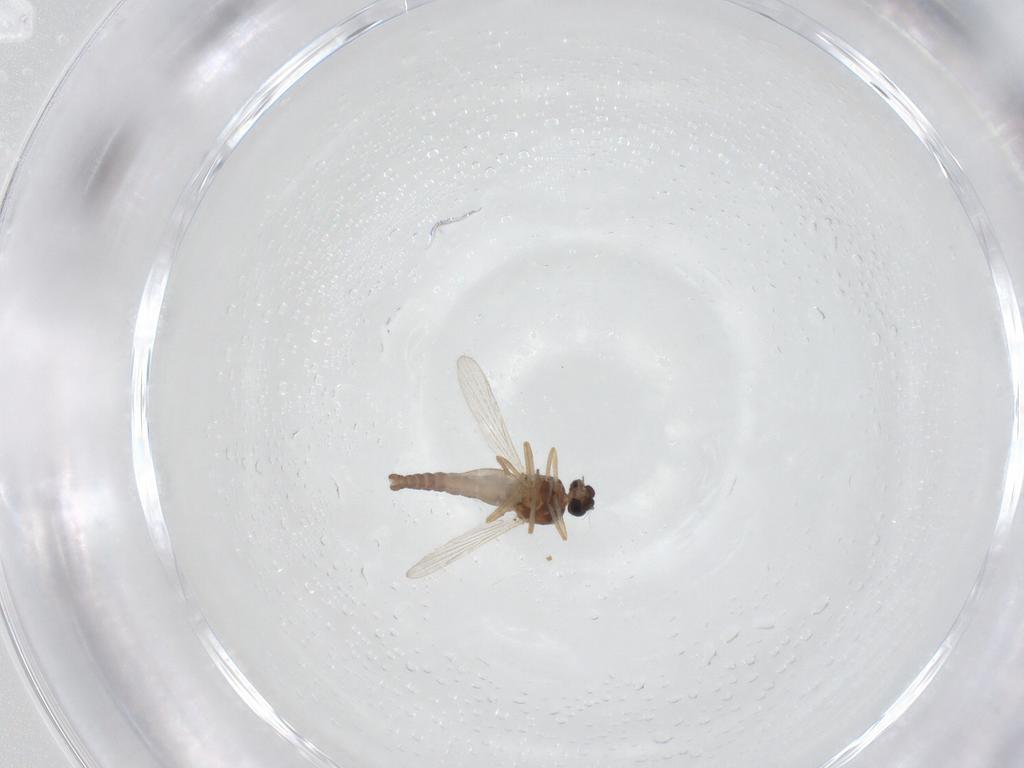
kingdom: Animalia
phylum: Arthropoda
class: Insecta
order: Diptera
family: Ceratopogonidae
